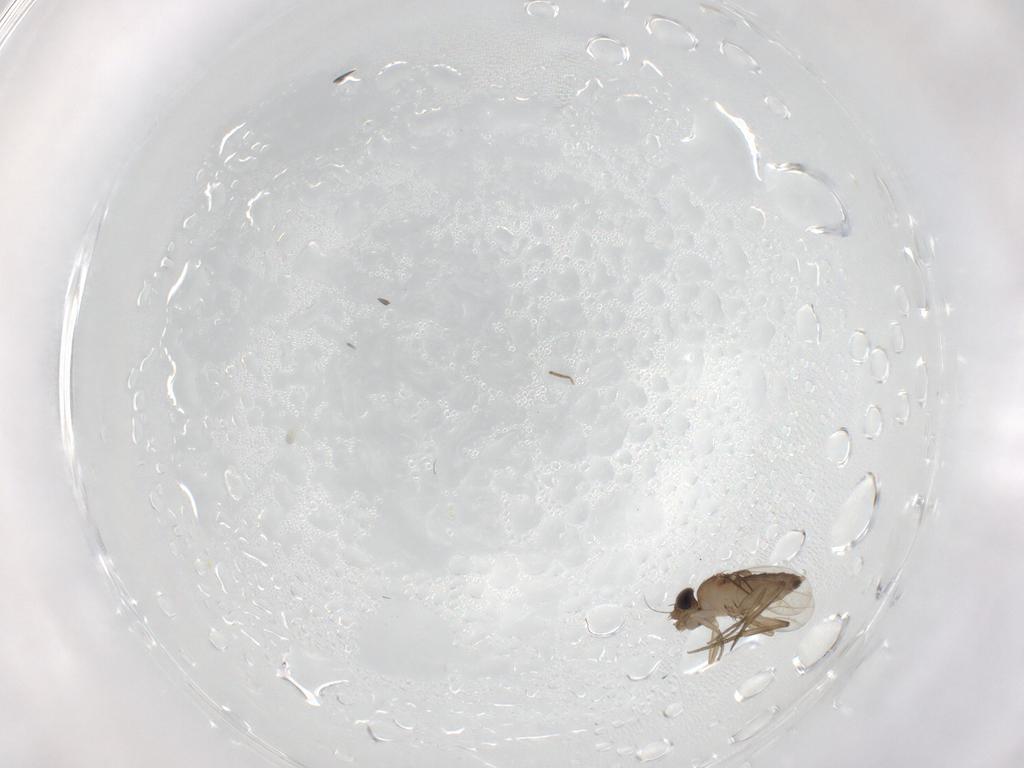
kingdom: Animalia
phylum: Arthropoda
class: Insecta
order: Diptera
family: Phoridae
